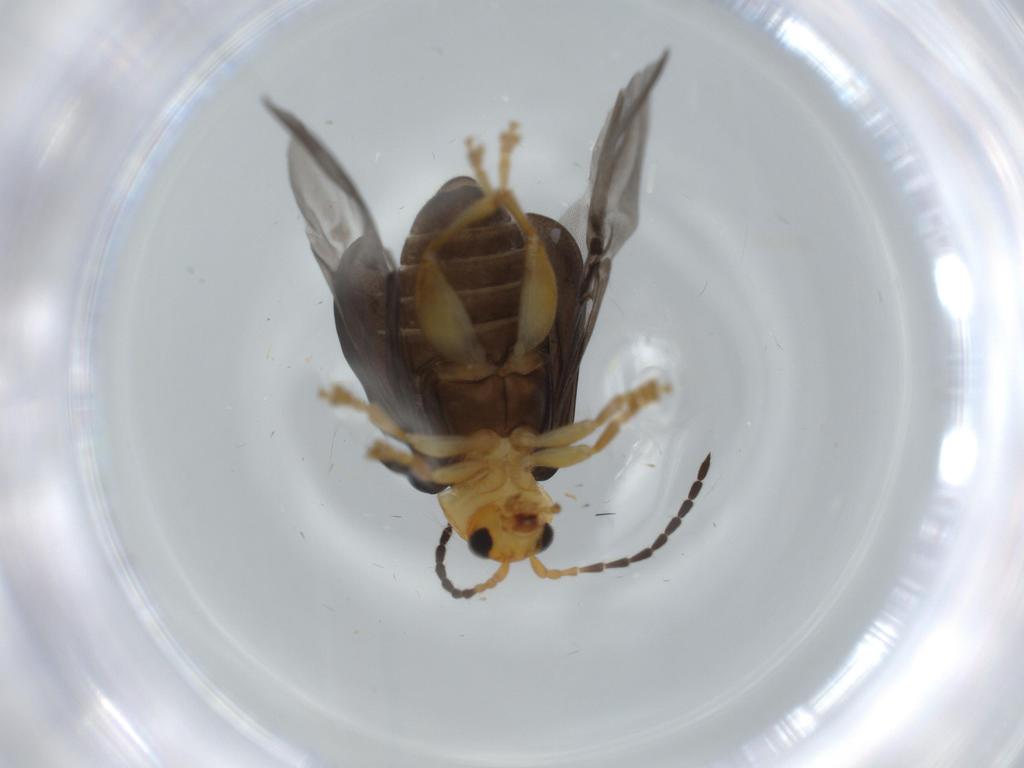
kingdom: Animalia
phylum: Arthropoda
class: Insecta
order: Coleoptera
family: Chrysomelidae
